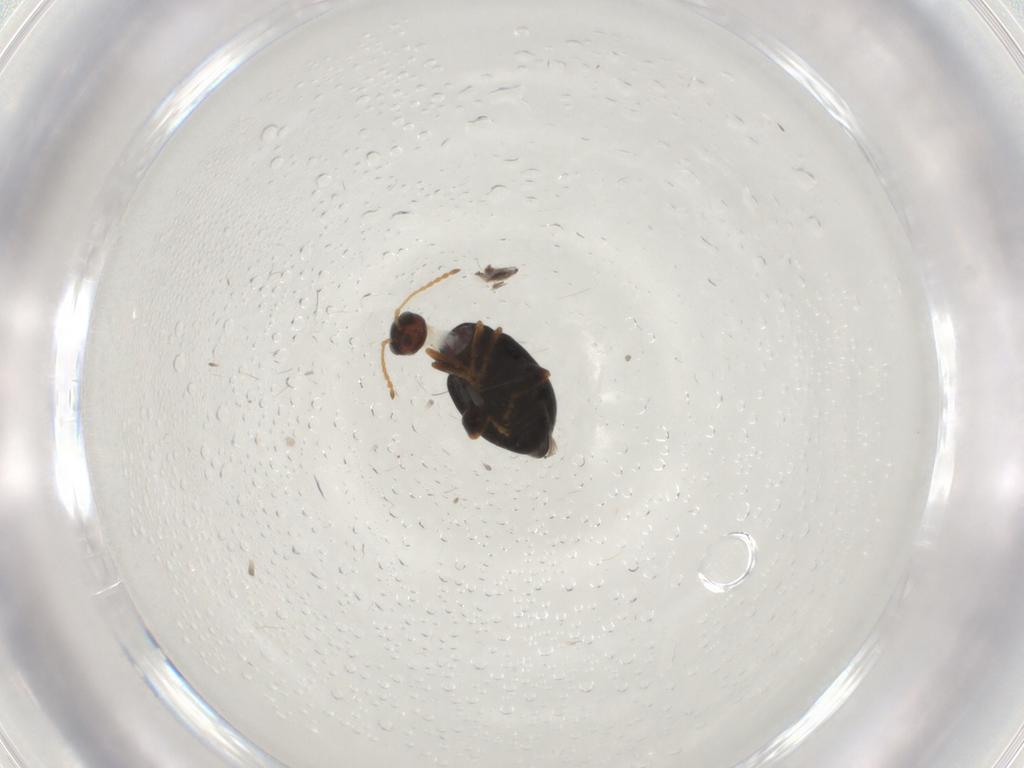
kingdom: Animalia
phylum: Arthropoda
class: Insecta
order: Coleoptera
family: Chrysomelidae
